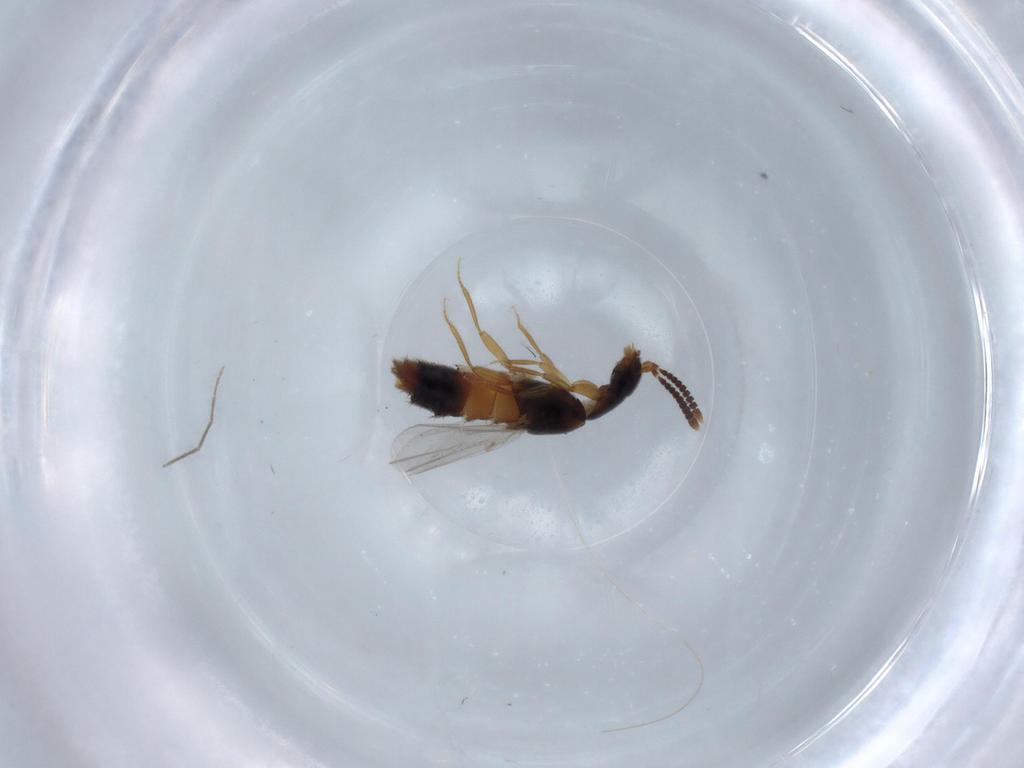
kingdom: Animalia
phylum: Arthropoda
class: Insecta
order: Coleoptera
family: Staphylinidae
